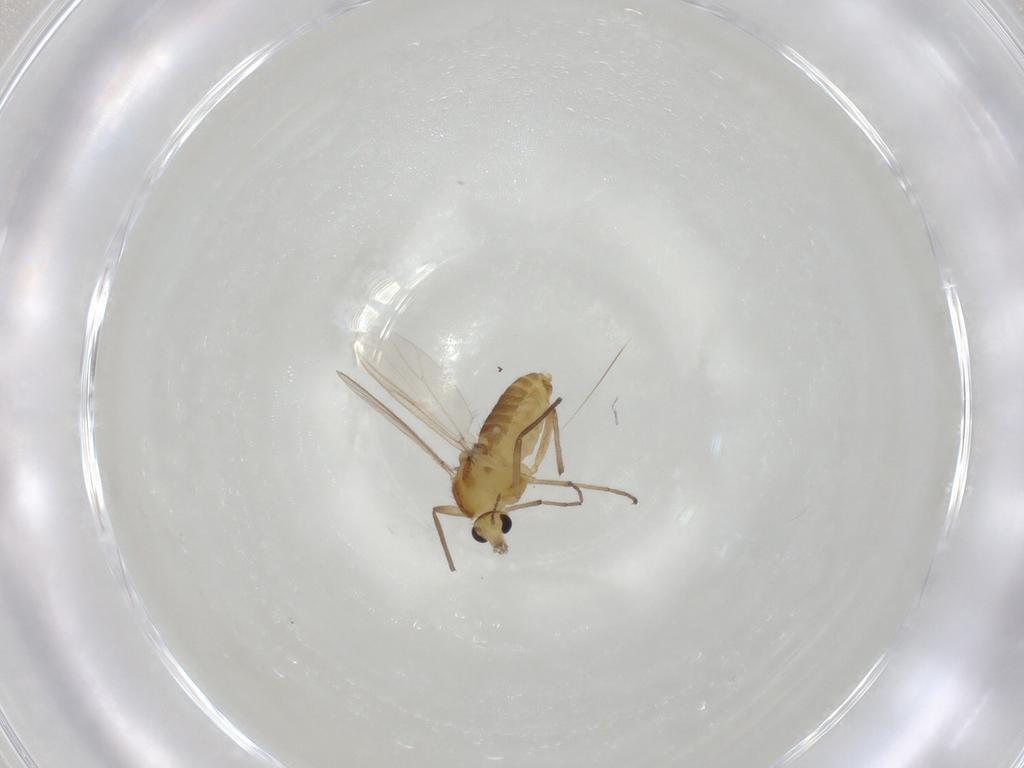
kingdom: Animalia
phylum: Arthropoda
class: Insecta
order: Diptera
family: Chironomidae
